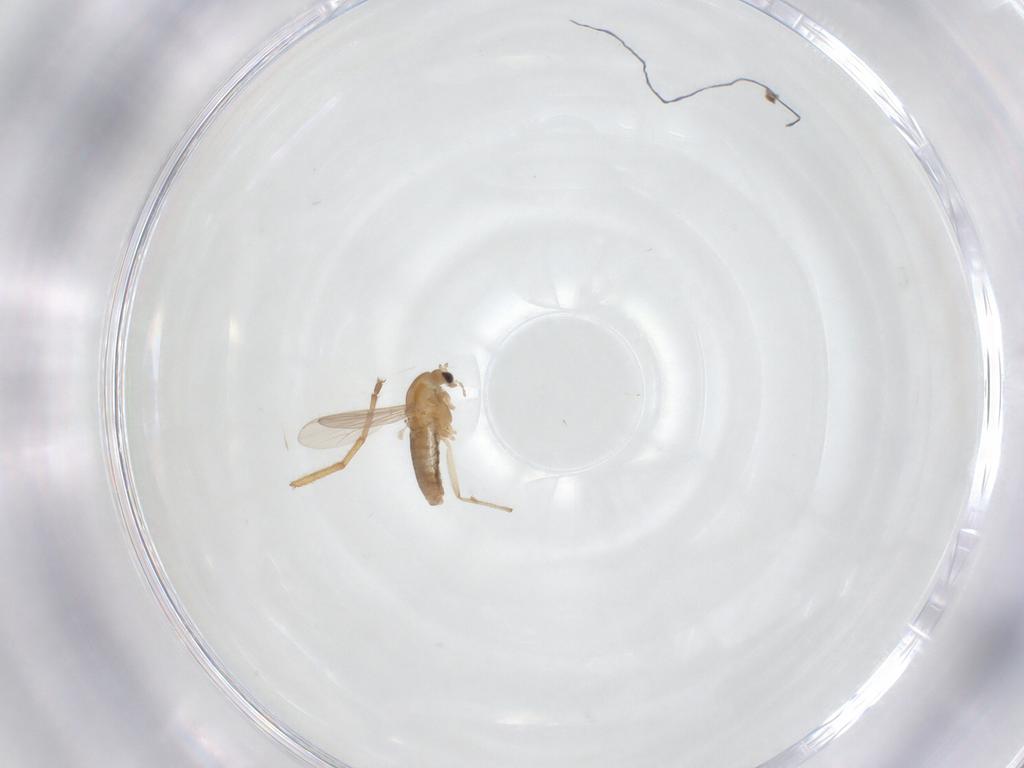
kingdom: Animalia
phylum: Arthropoda
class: Insecta
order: Diptera
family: Chironomidae
